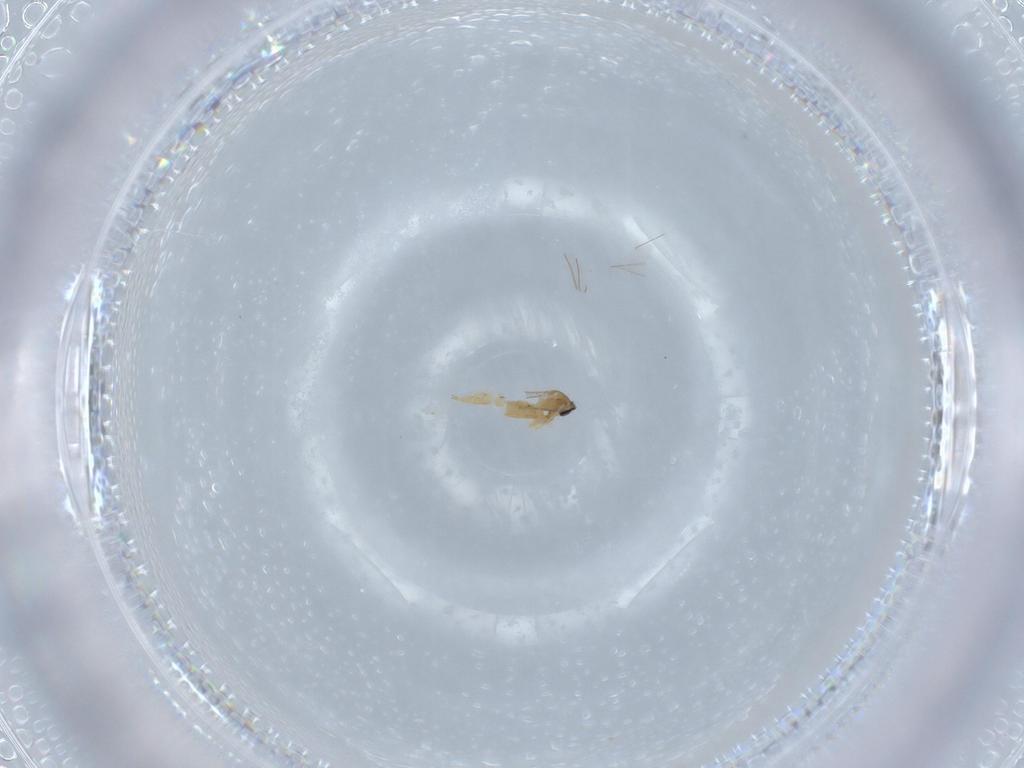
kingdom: Animalia
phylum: Arthropoda
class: Insecta
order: Diptera
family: Cecidomyiidae
